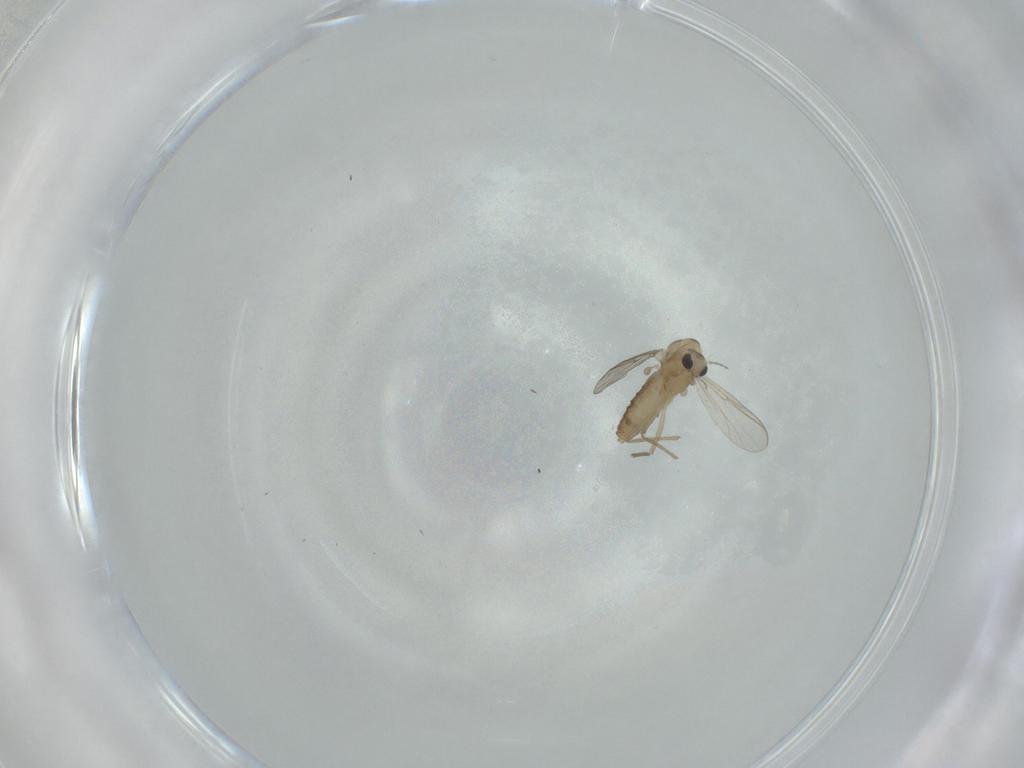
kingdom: Animalia
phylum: Arthropoda
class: Insecta
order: Diptera
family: Chironomidae
